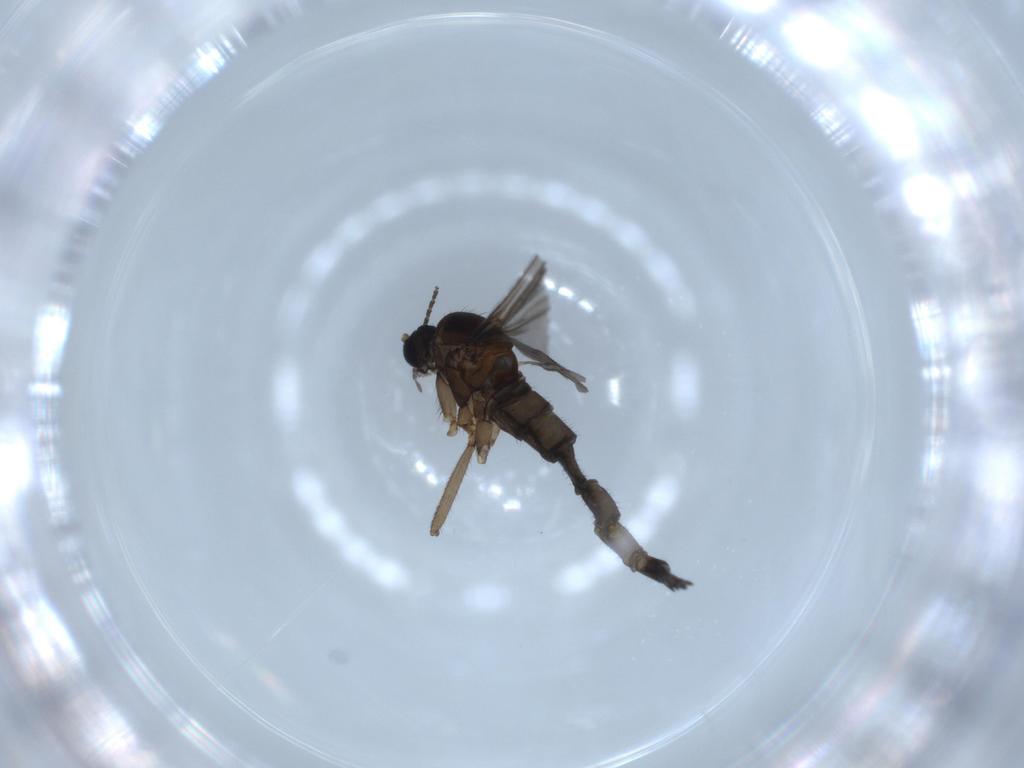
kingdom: Animalia
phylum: Arthropoda
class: Insecta
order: Diptera
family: Sciaridae
